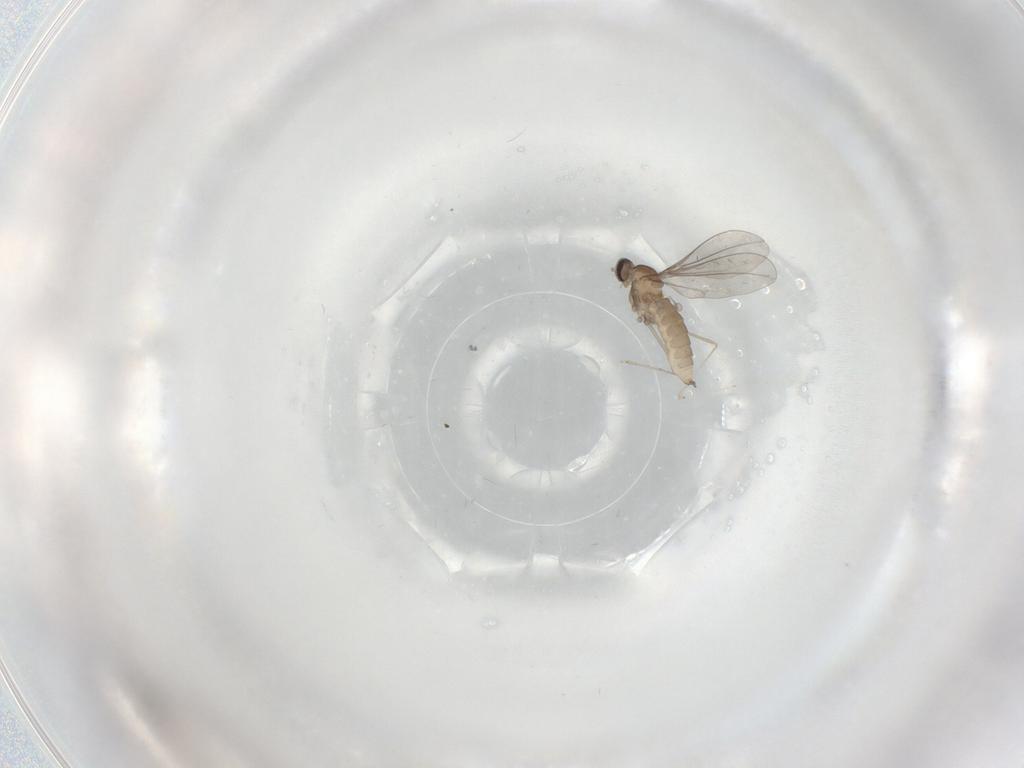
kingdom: Animalia
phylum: Arthropoda
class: Insecta
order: Diptera
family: Cecidomyiidae
